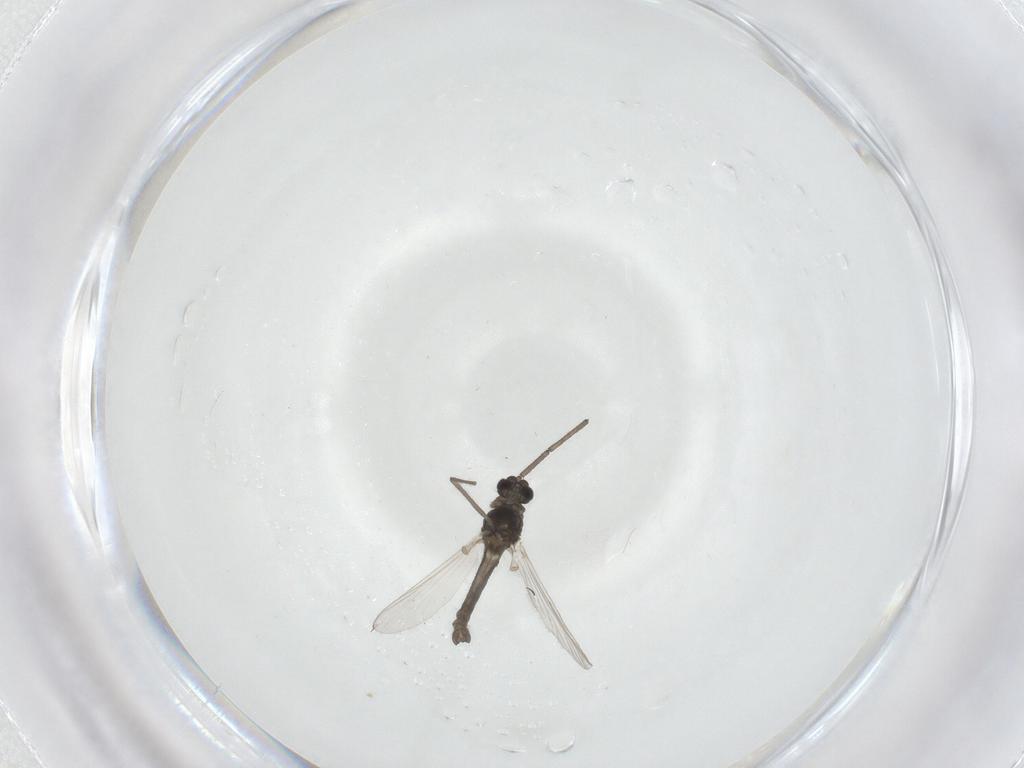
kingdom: Animalia
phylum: Arthropoda
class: Insecta
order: Diptera
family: Chironomidae
